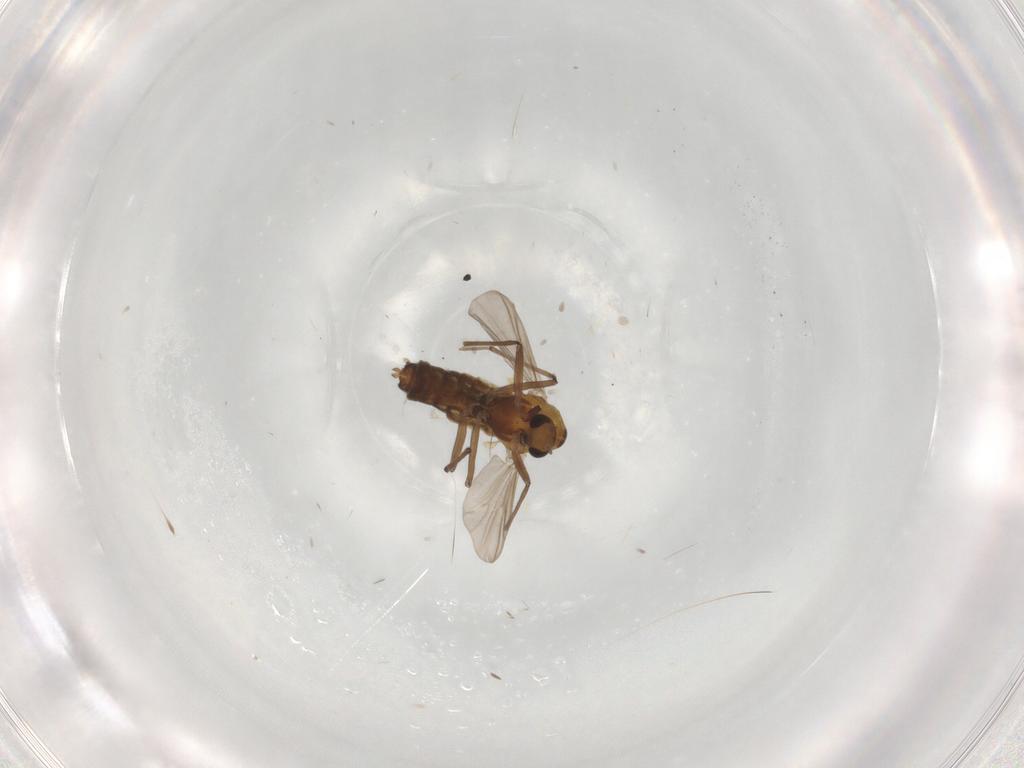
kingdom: Animalia
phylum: Arthropoda
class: Insecta
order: Diptera
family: Chironomidae
